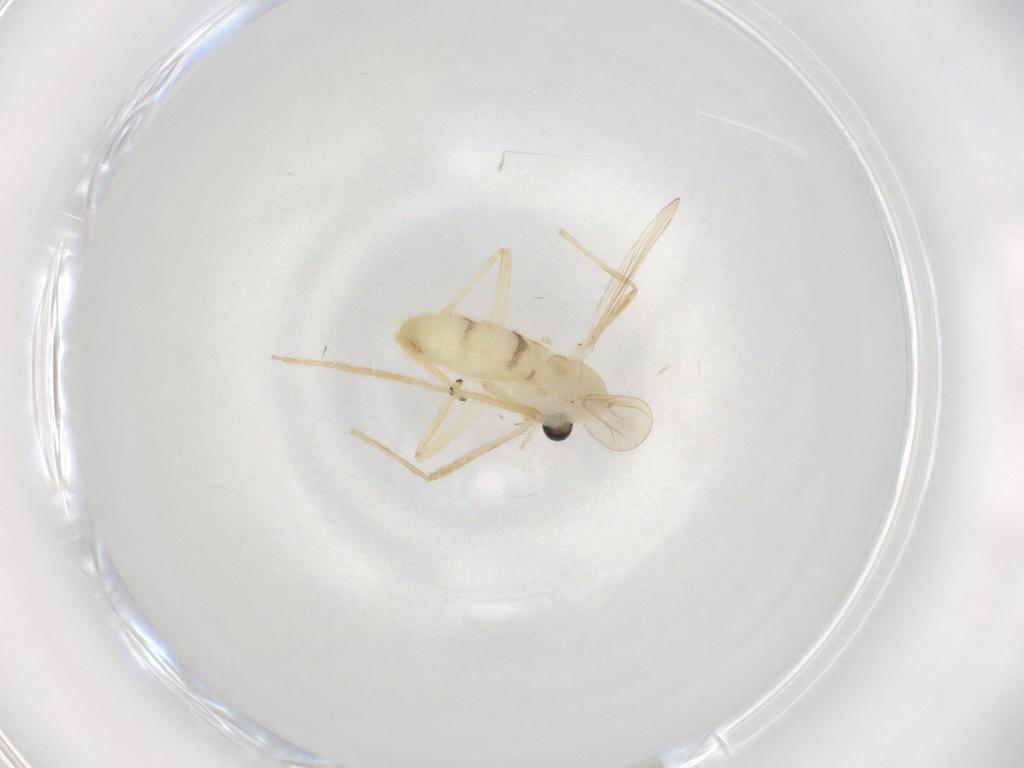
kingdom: Animalia
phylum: Arthropoda
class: Insecta
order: Diptera
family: Chironomidae
